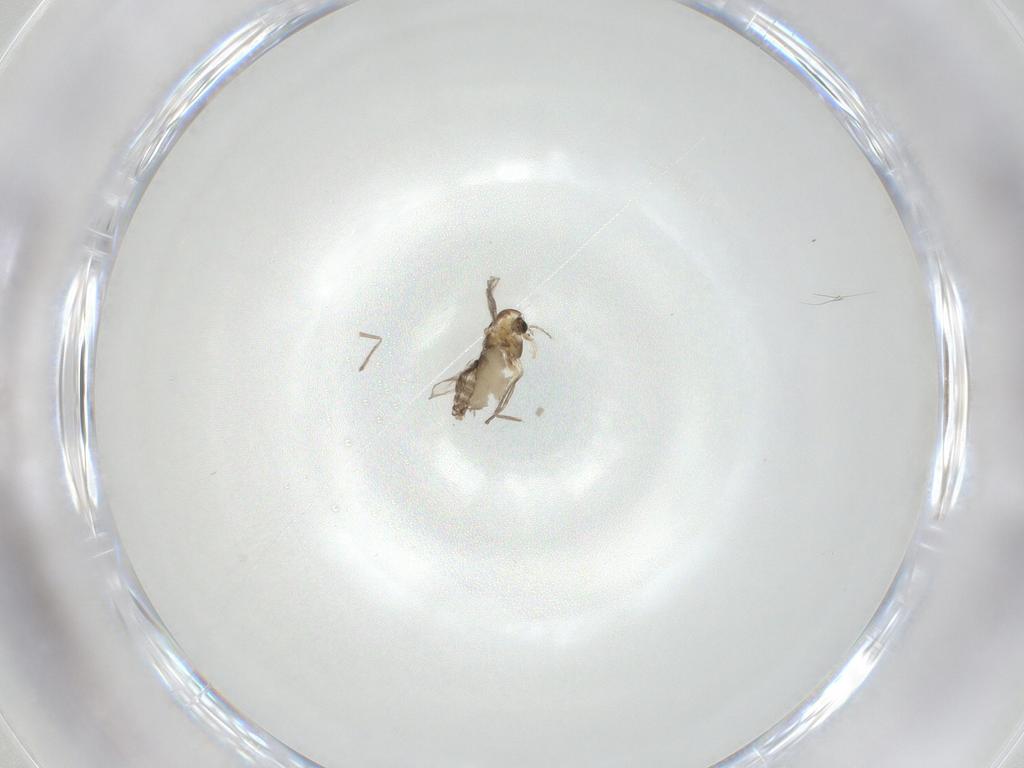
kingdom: Animalia
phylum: Arthropoda
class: Insecta
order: Diptera
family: Chironomidae
